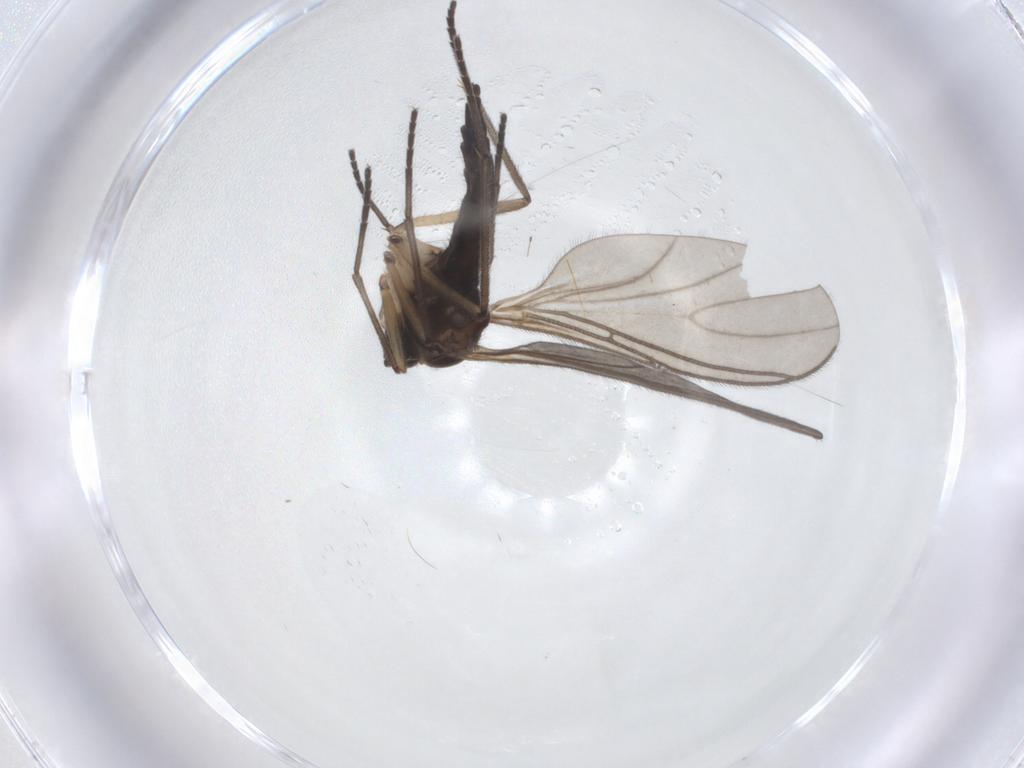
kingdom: Animalia
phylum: Arthropoda
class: Insecta
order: Diptera
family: Sciaridae
